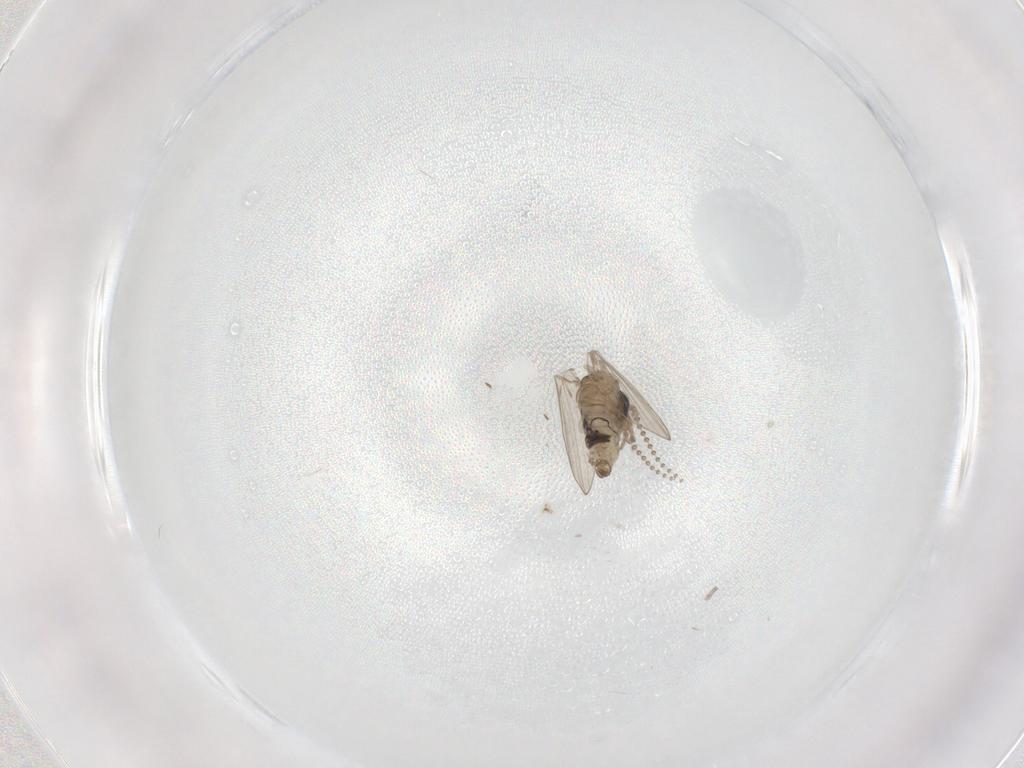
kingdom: Animalia
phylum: Arthropoda
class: Insecta
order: Diptera
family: Psychodidae
